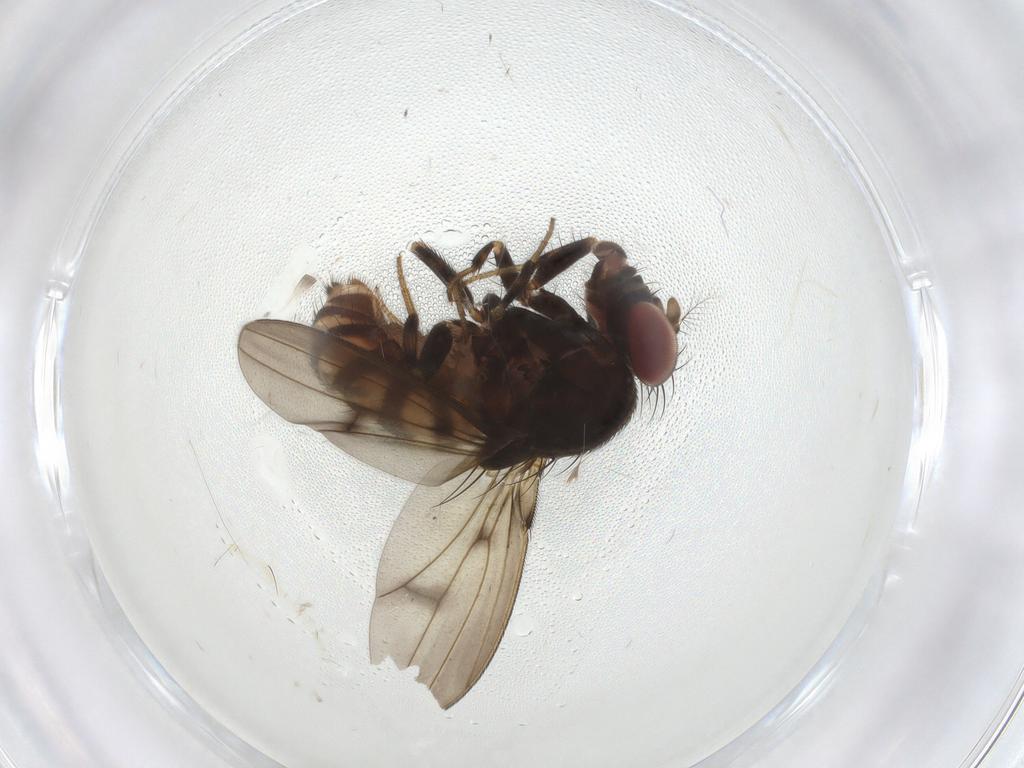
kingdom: Animalia
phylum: Arthropoda
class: Insecta
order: Diptera
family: Drosophilidae
